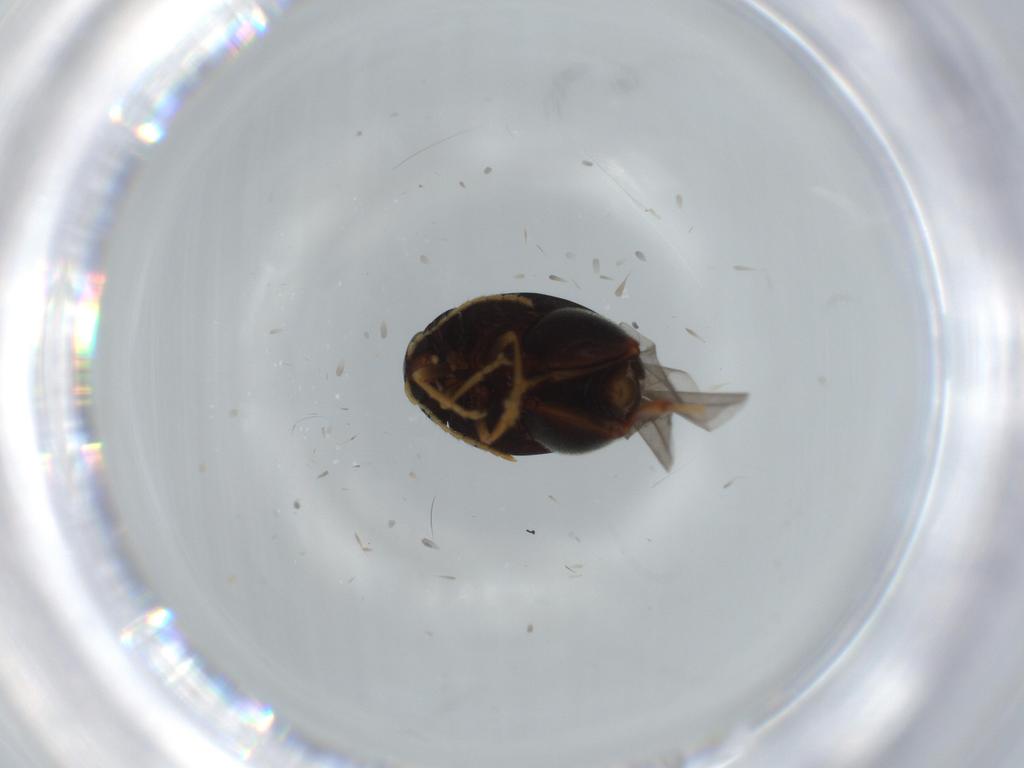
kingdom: Animalia
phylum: Arthropoda
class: Insecta
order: Coleoptera
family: Chrysomelidae
